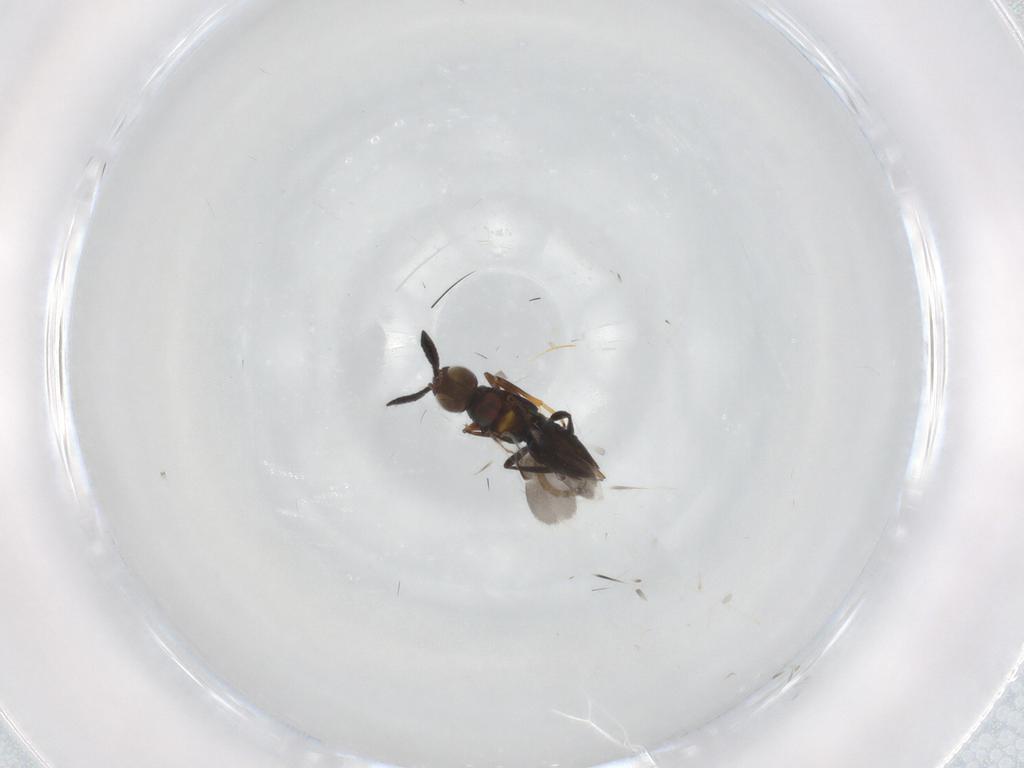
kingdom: Animalia
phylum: Arthropoda
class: Insecta
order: Hymenoptera
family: Encyrtidae
